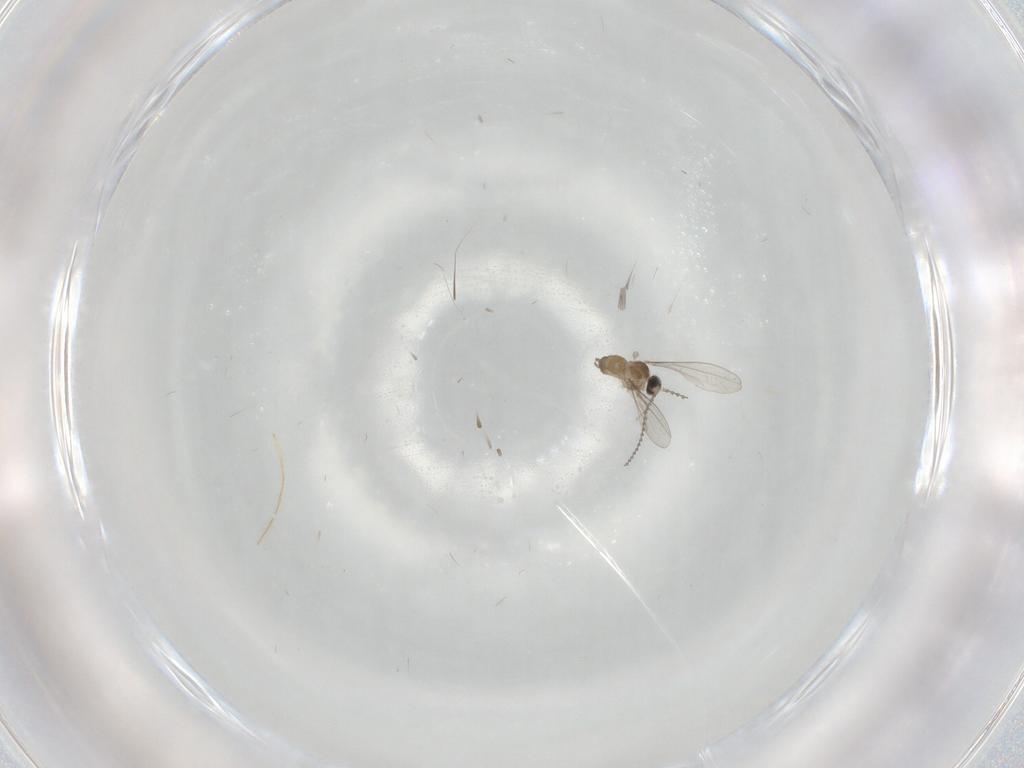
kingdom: Animalia
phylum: Arthropoda
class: Insecta
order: Diptera
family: Cecidomyiidae
